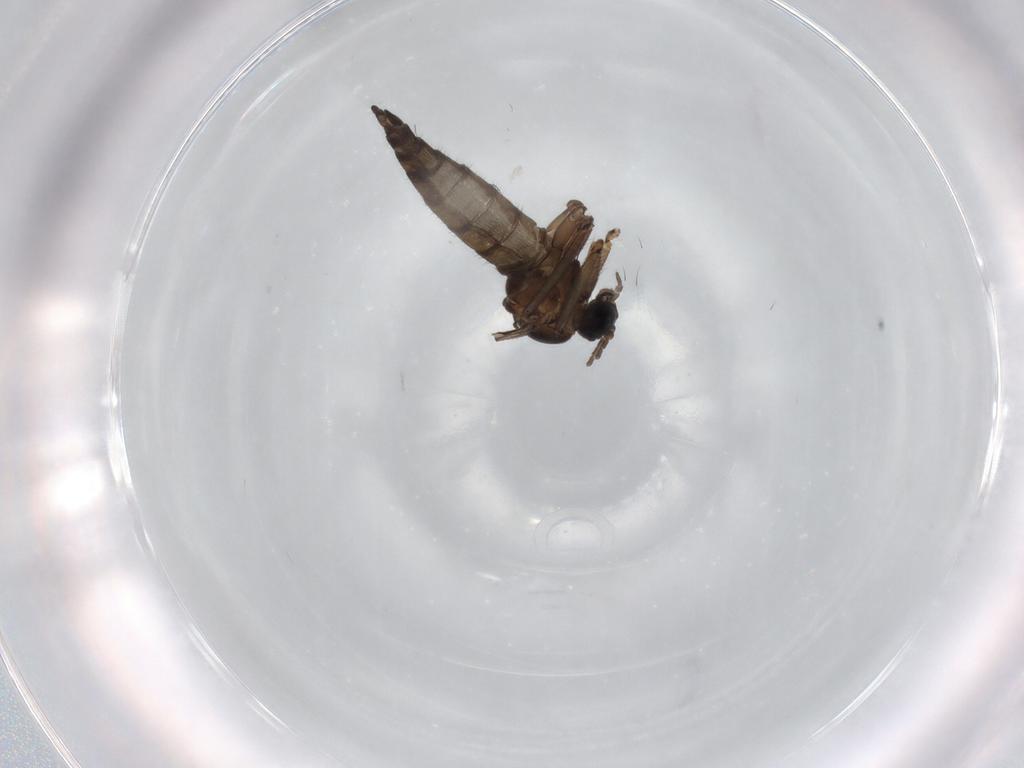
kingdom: Animalia
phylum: Arthropoda
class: Insecta
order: Diptera
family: Sciaridae
